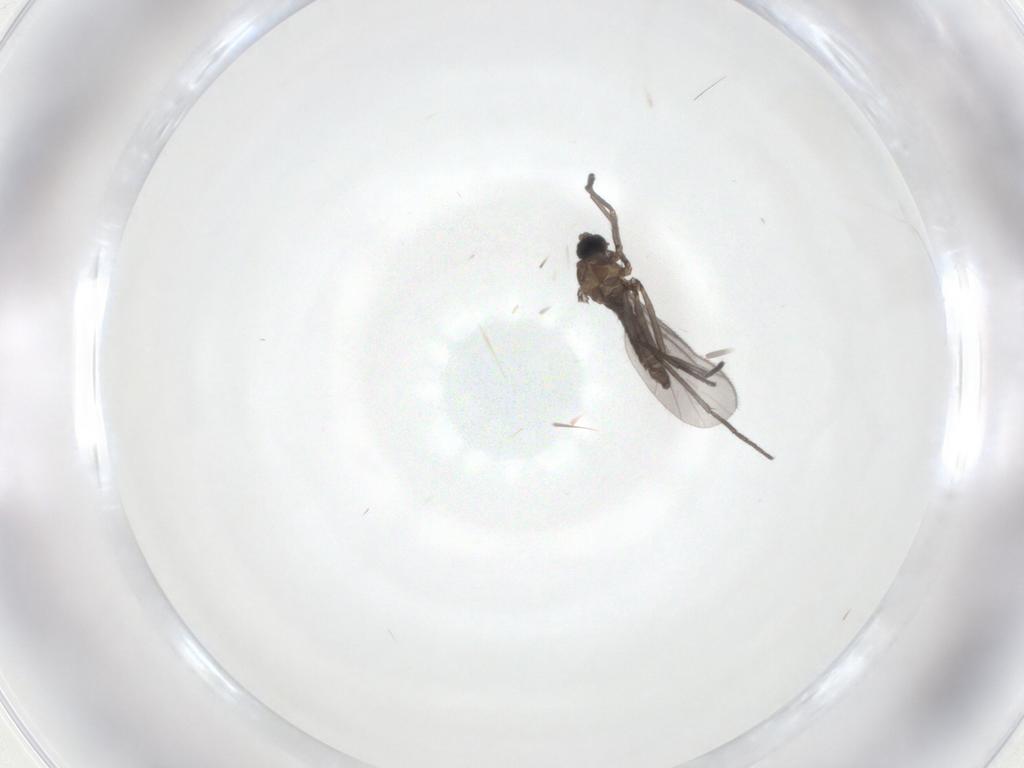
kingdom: Animalia
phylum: Arthropoda
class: Insecta
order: Diptera
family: Sciaridae
